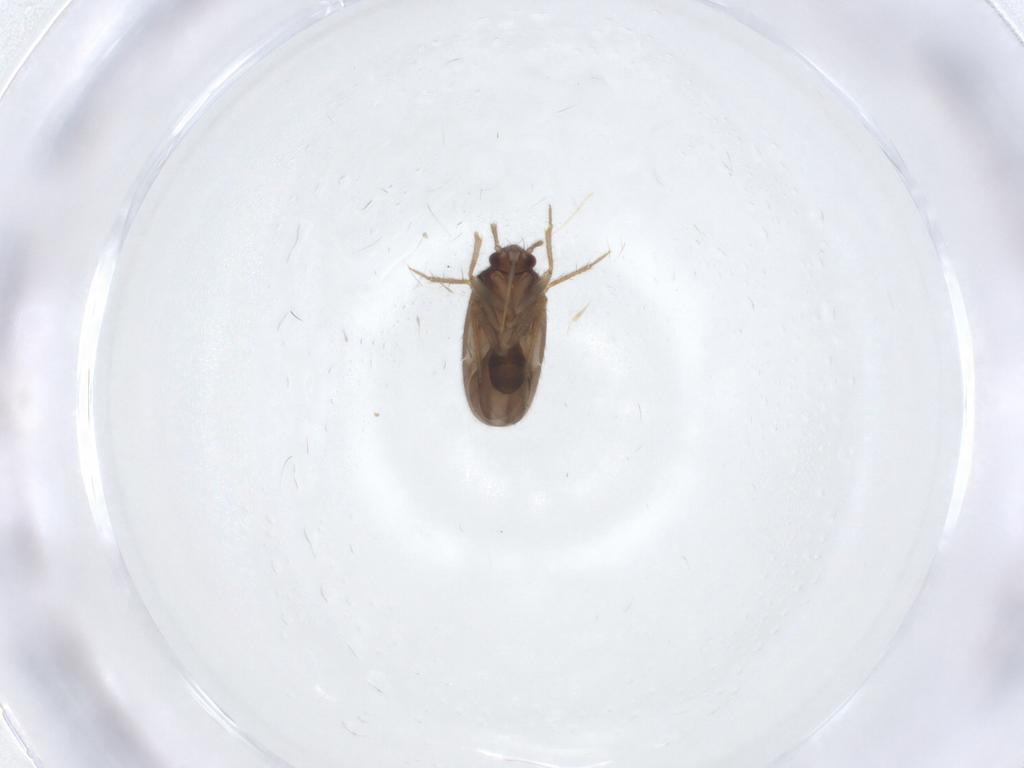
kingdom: Animalia
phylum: Arthropoda
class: Insecta
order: Hemiptera
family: Ceratocombidae
